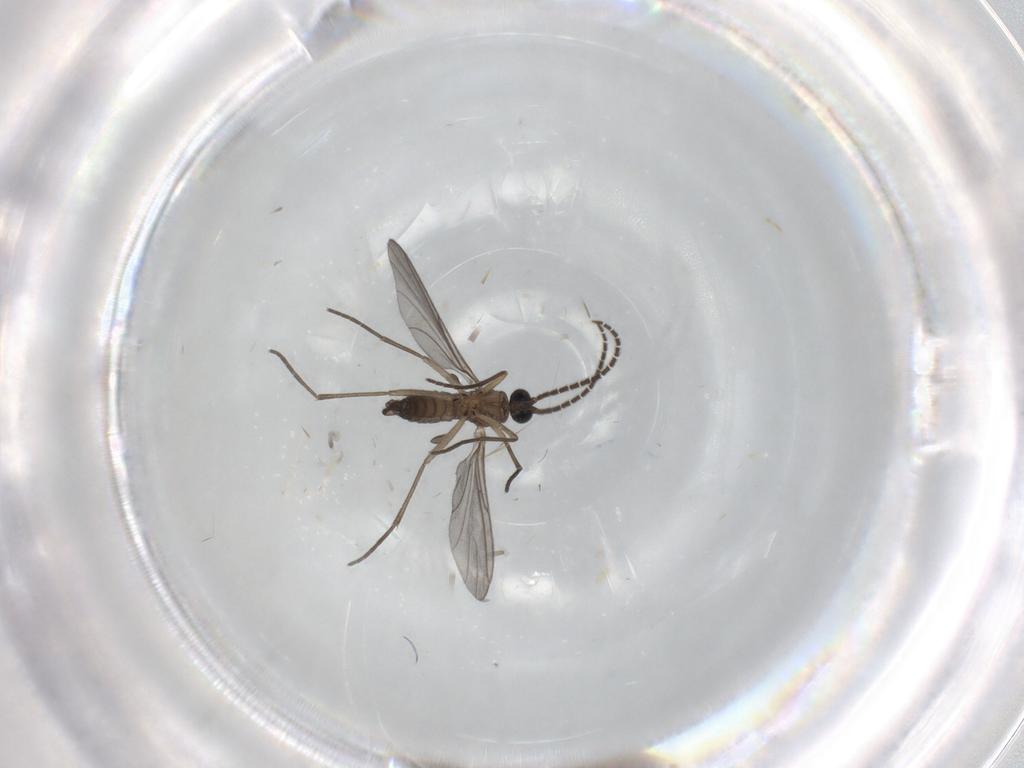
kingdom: Animalia
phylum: Arthropoda
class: Insecta
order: Diptera
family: Sciaridae
